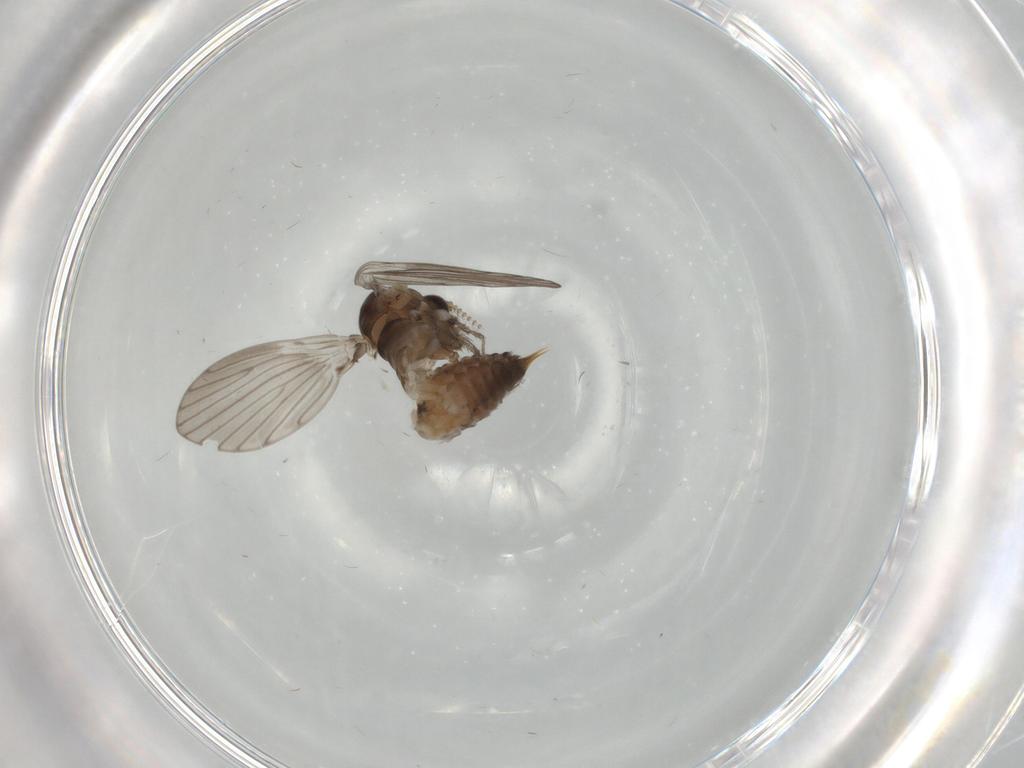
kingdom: Animalia
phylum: Arthropoda
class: Insecta
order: Diptera
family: Psychodidae
